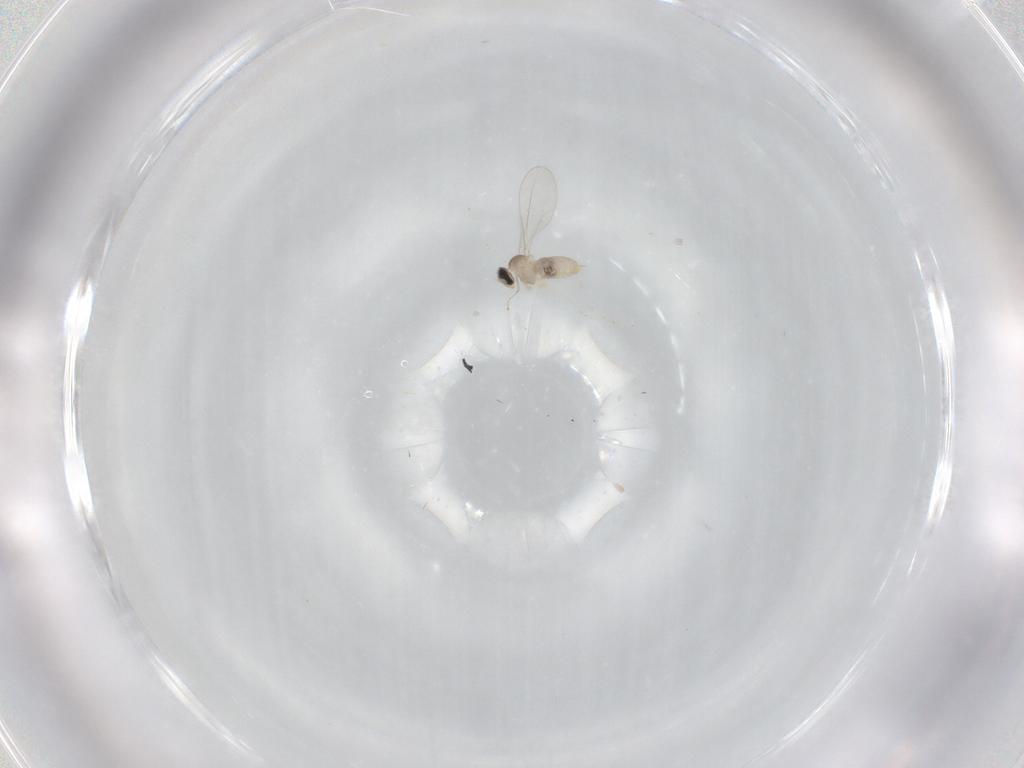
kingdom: Animalia
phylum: Arthropoda
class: Insecta
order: Diptera
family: Cecidomyiidae
